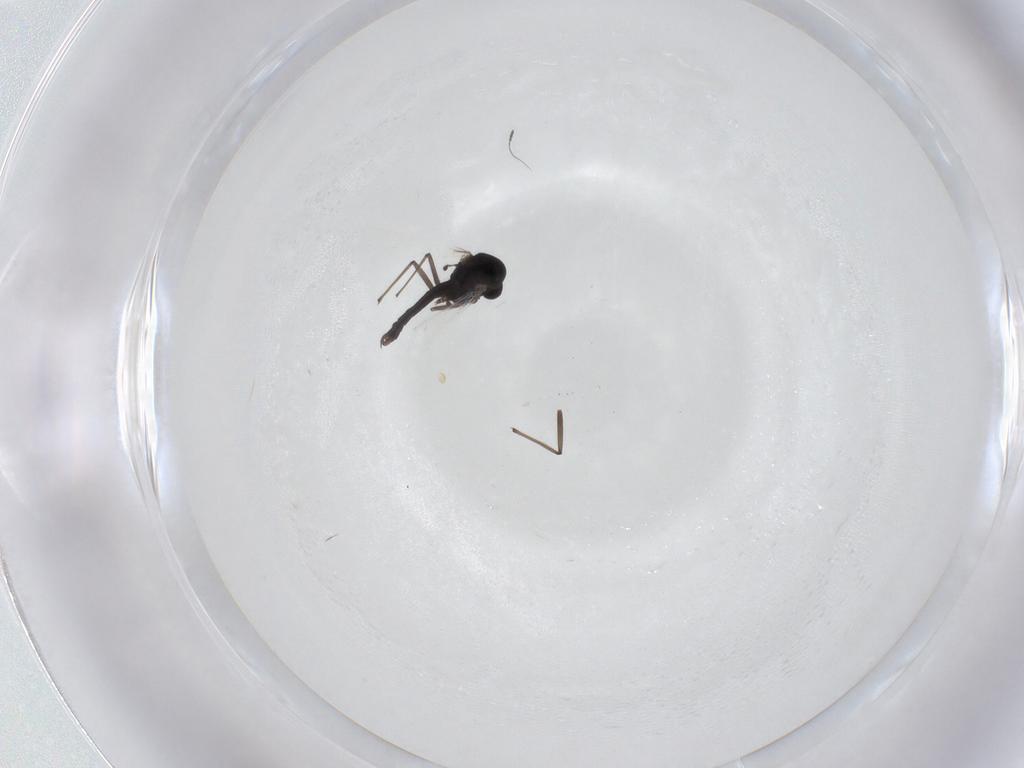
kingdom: Animalia
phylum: Arthropoda
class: Insecta
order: Diptera
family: Chironomidae
